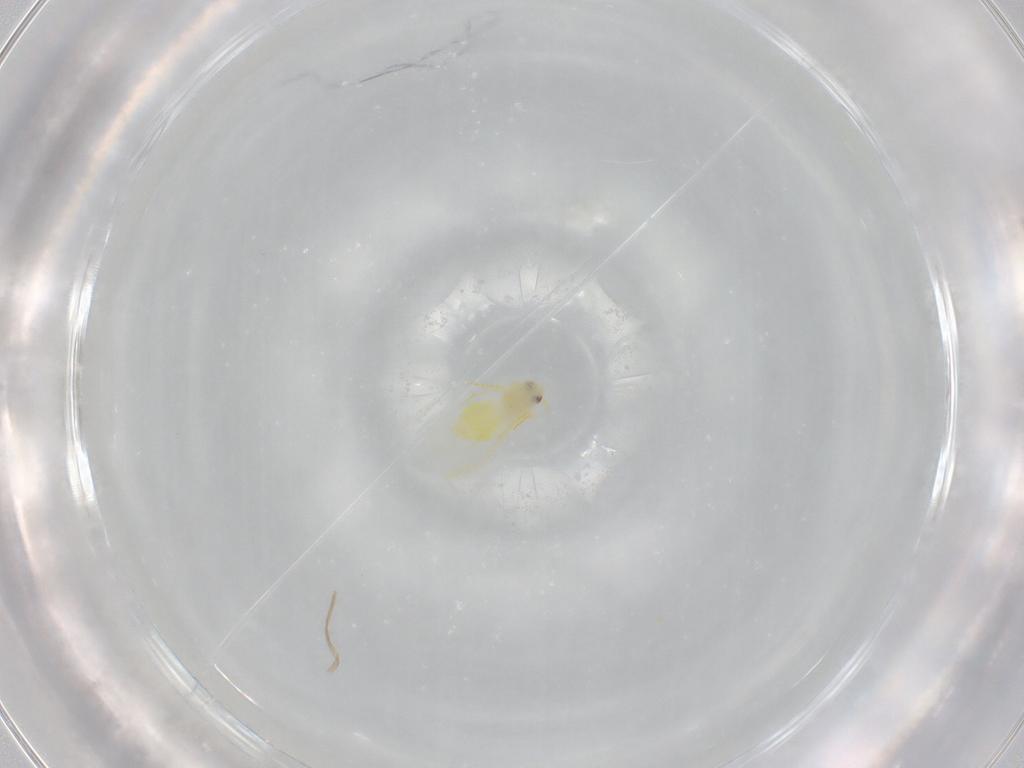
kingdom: Animalia
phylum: Arthropoda
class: Insecta
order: Hemiptera
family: Aleyrodidae
